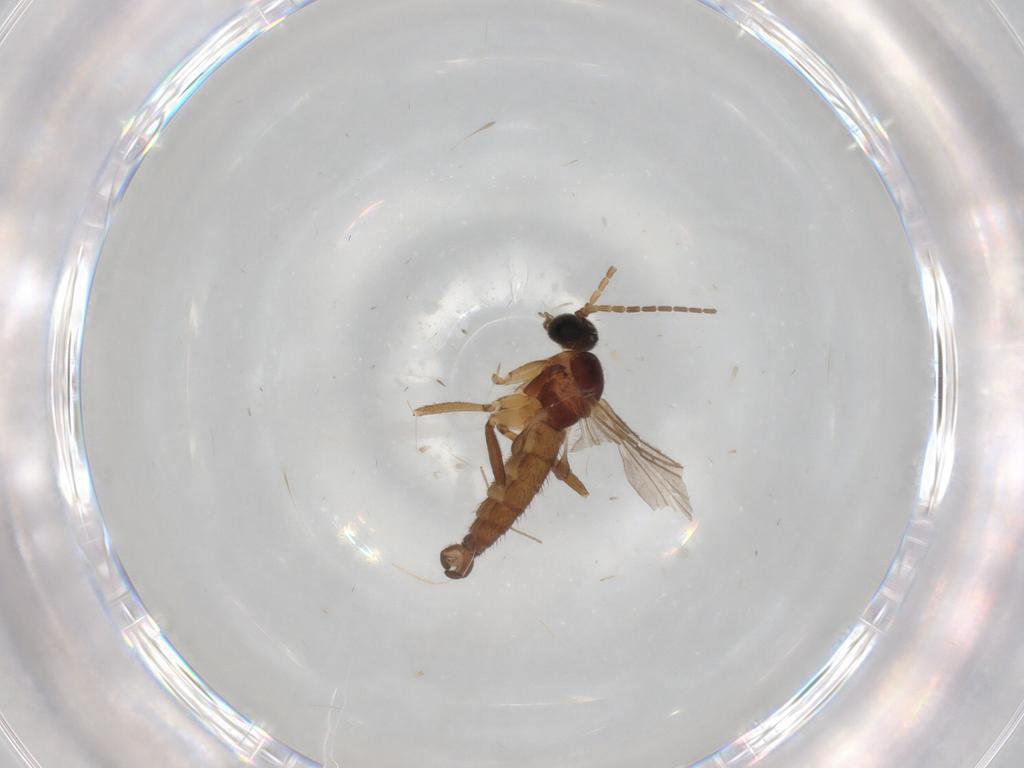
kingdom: Animalia
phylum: Arthropoda
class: Insecta
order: Diptera
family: Sciaridae
